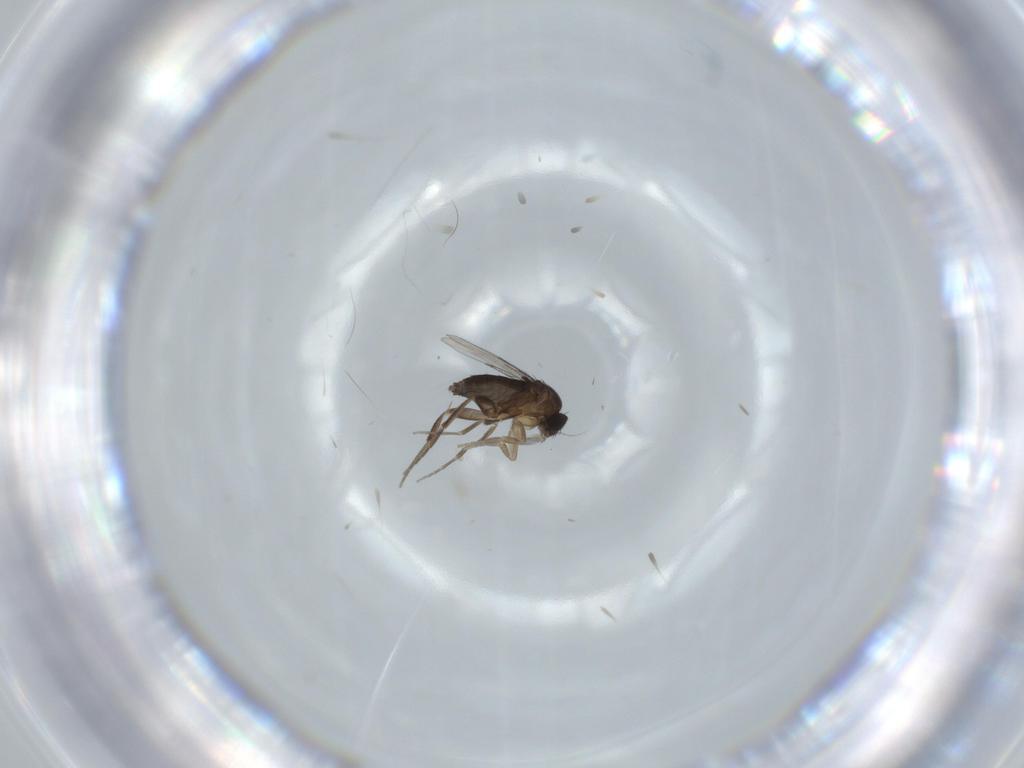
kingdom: Animalia
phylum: Arthropoda
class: Insecta
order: Diptera
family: Phoridae
